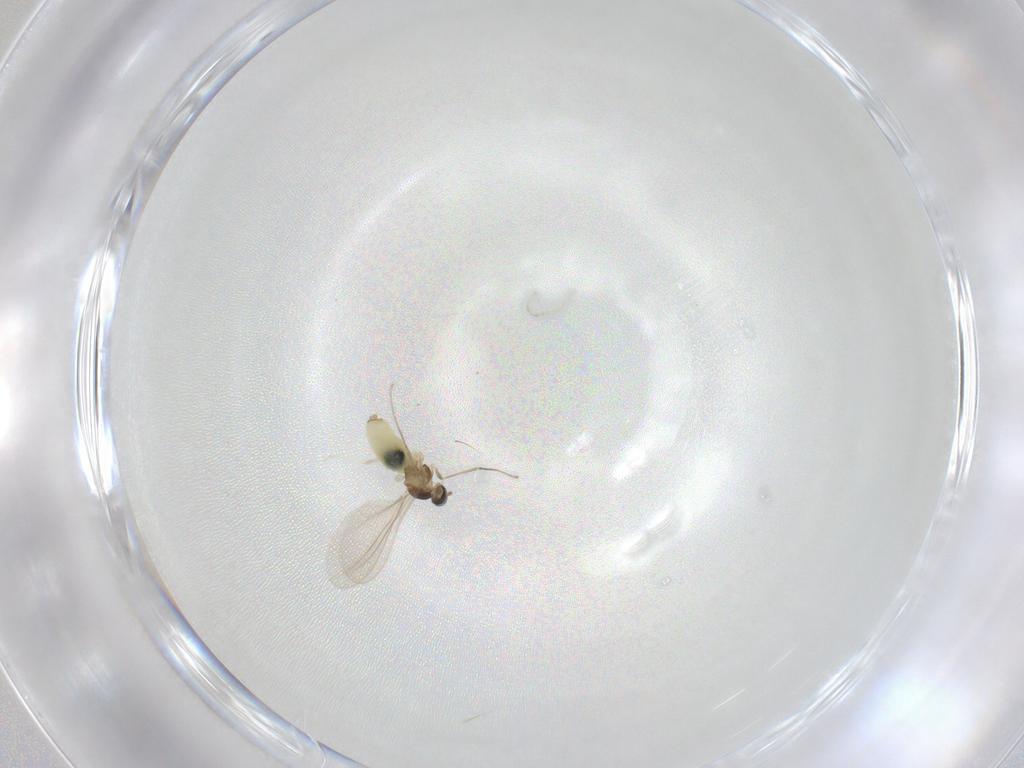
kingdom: Animalia
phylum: Arthropoda
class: Insecta
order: Diptera
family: Cecidomyiidae
